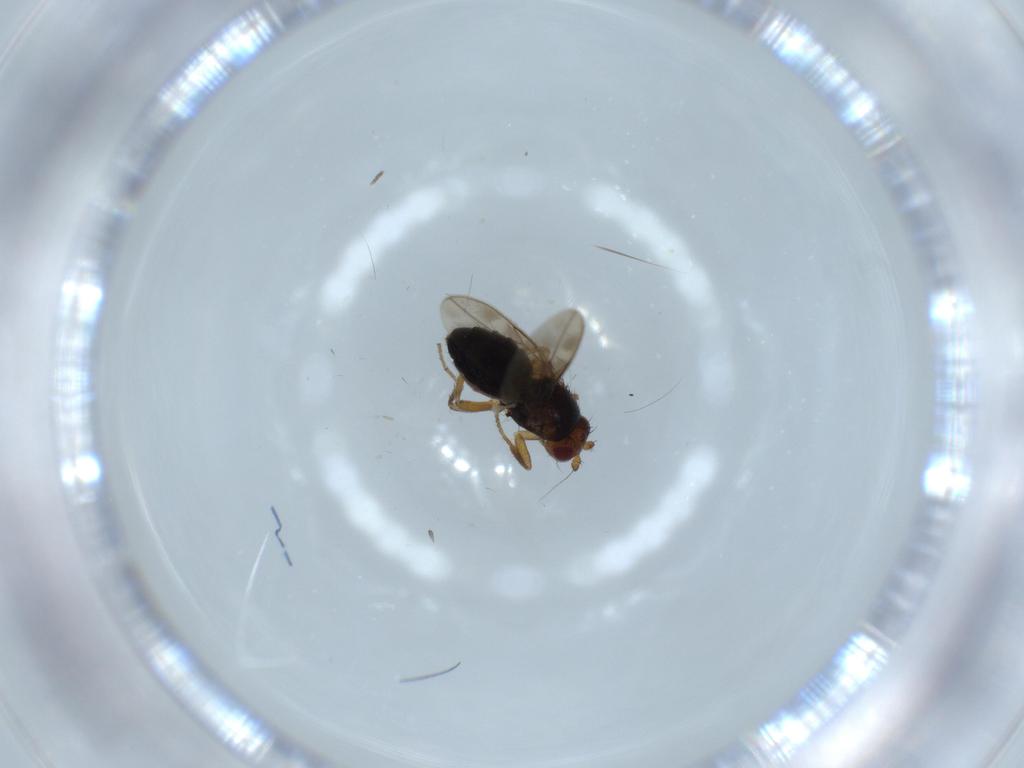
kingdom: Animalia
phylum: Arthropoda
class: Insecta
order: Diptera
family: Sphaeroceridae
